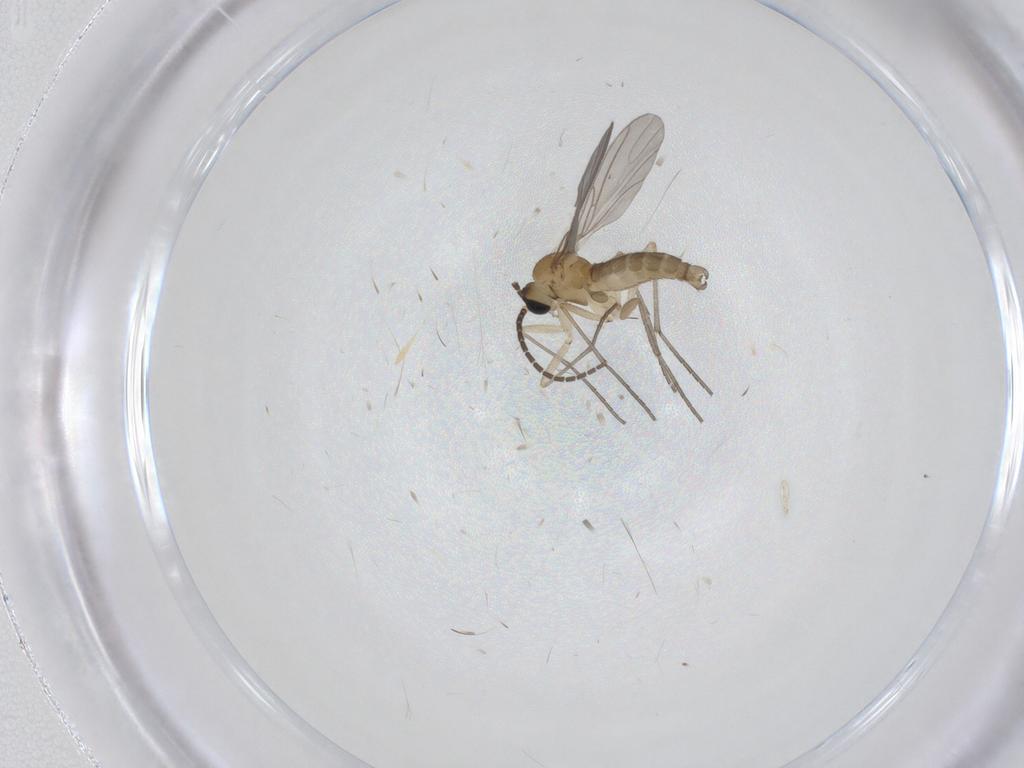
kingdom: Animalia
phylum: Arthropoda
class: Insecta
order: Diptera
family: Sciaridae
